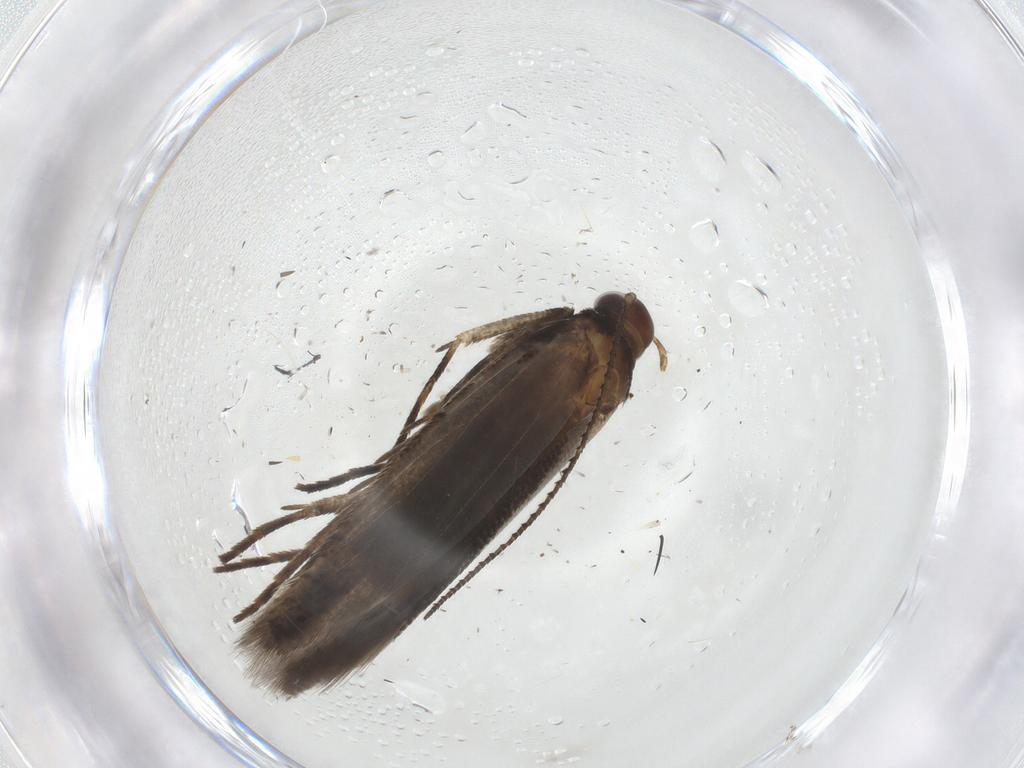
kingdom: Animalia
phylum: Arthropoda
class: Insecta
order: Lepidoptera
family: Gelechiidae
